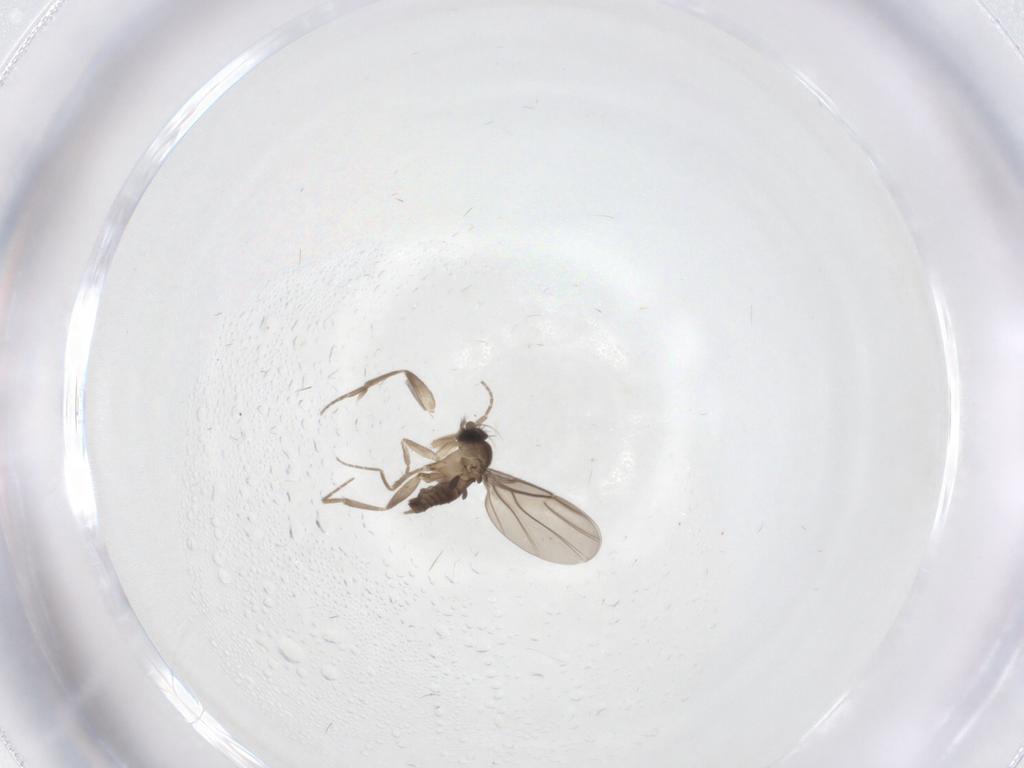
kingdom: Animalia
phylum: Arthropoda
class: Insecta
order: Diptera
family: Phoridae
